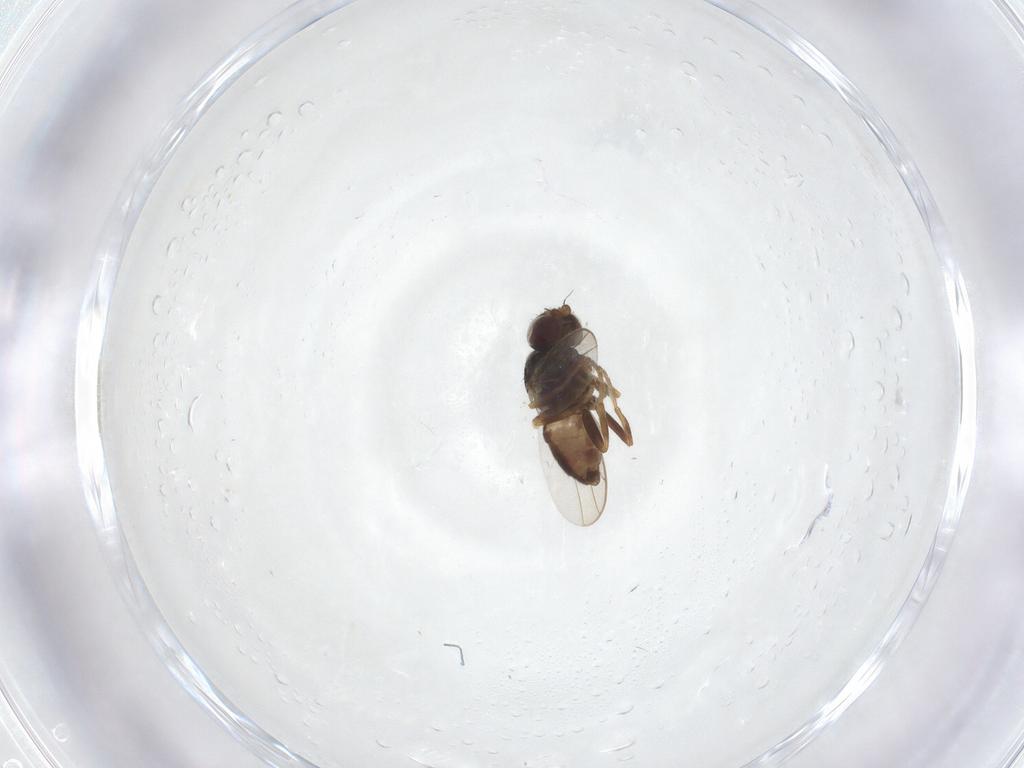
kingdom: Animalia
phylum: Arthropoda
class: Insecta
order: Diptera
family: Chloropidae
